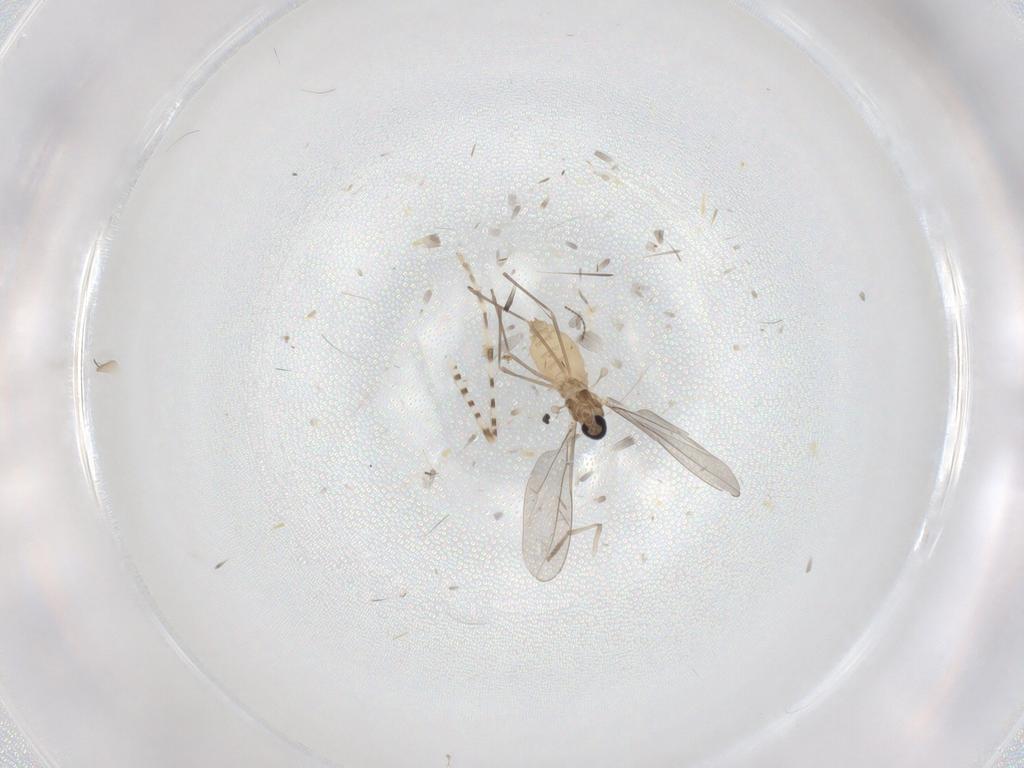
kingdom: Animalia
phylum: Arthropoda
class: Insecta
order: Diptera
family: Cecidomyiidae
